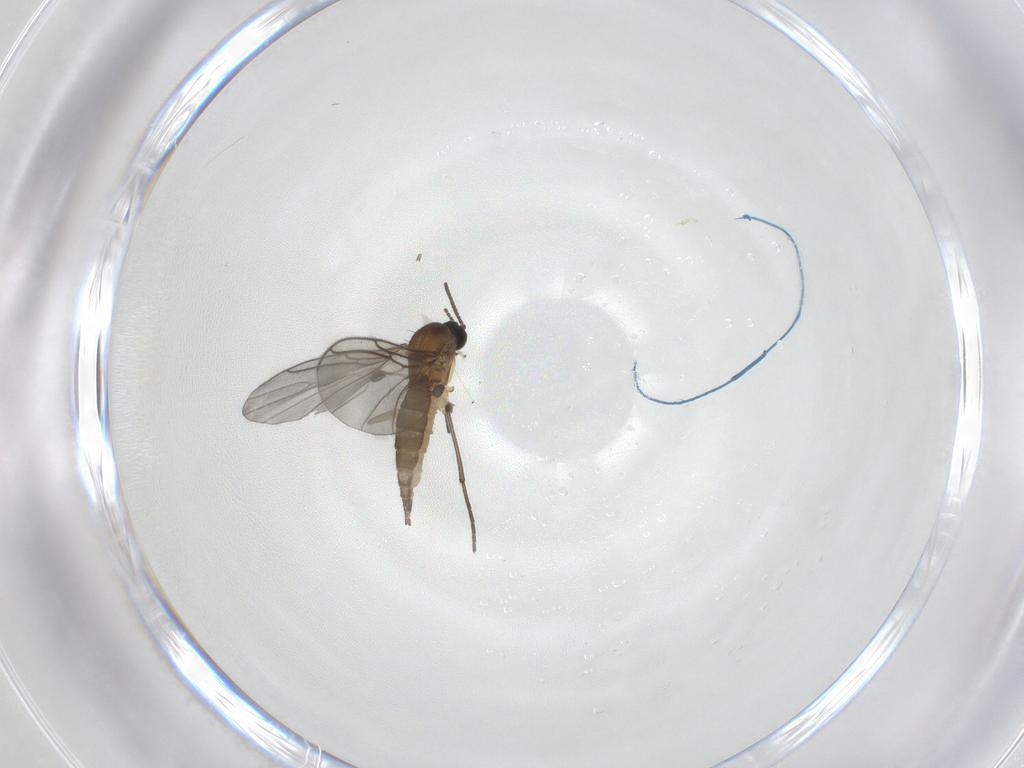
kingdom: Animalia
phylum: Arthropoda
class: Insecta
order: Diptera
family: Sciaridae
